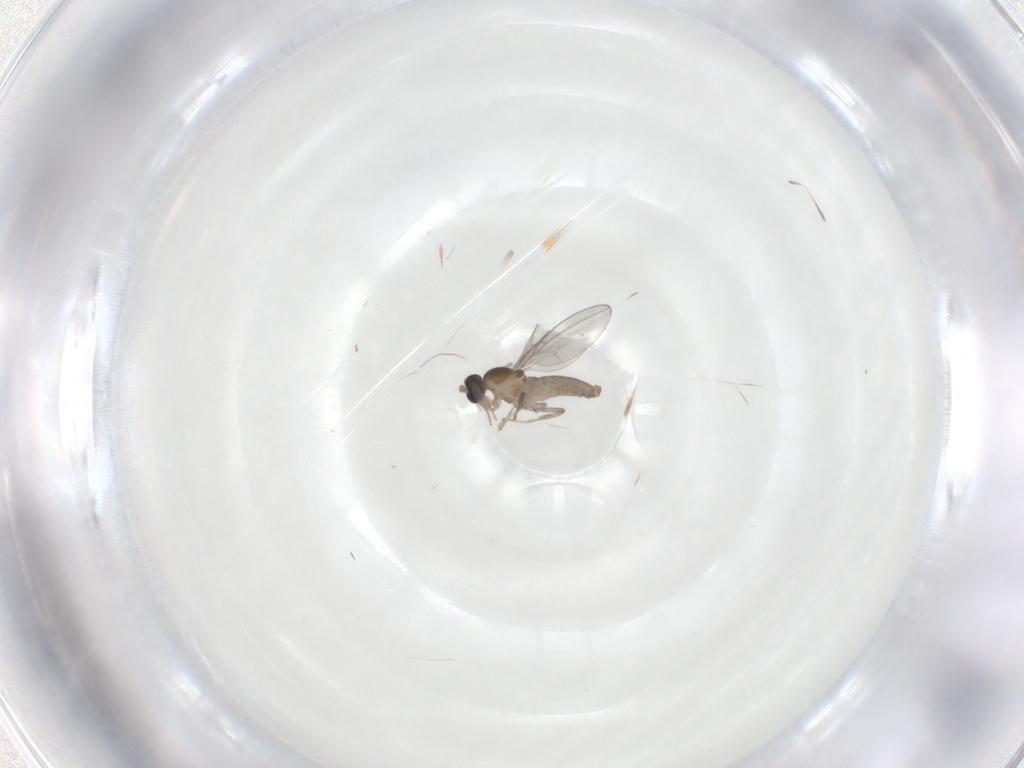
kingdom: Animalia
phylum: Arthropoda
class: Insecta
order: Diptera
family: Cecidomyiidae
